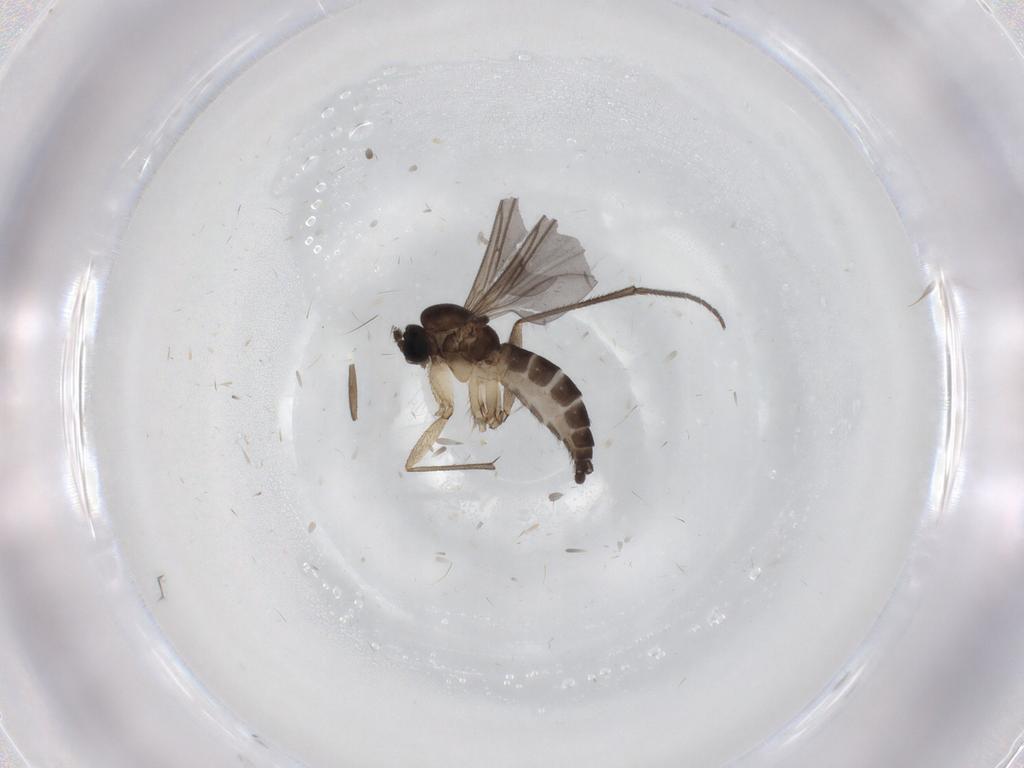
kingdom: Animalia
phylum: Arthropoda
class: Insecta
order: Diptera
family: Sciaridae
